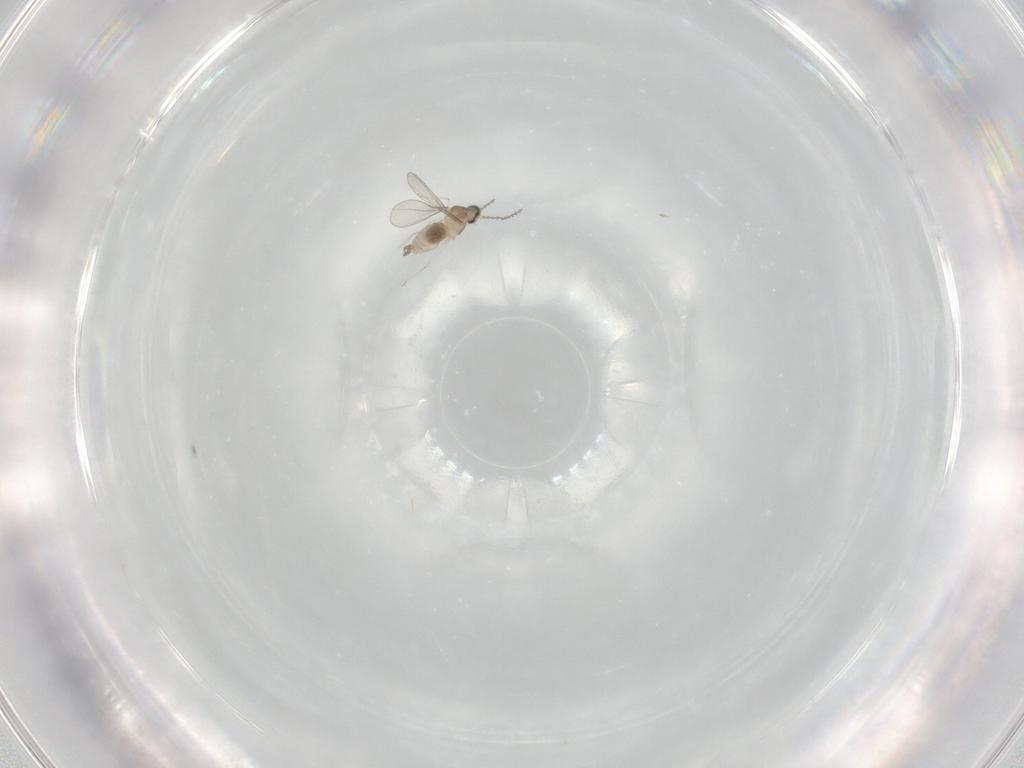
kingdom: Animalia
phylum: Arthropoda
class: Insecta
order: Diptera
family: Cecidomyiidae
